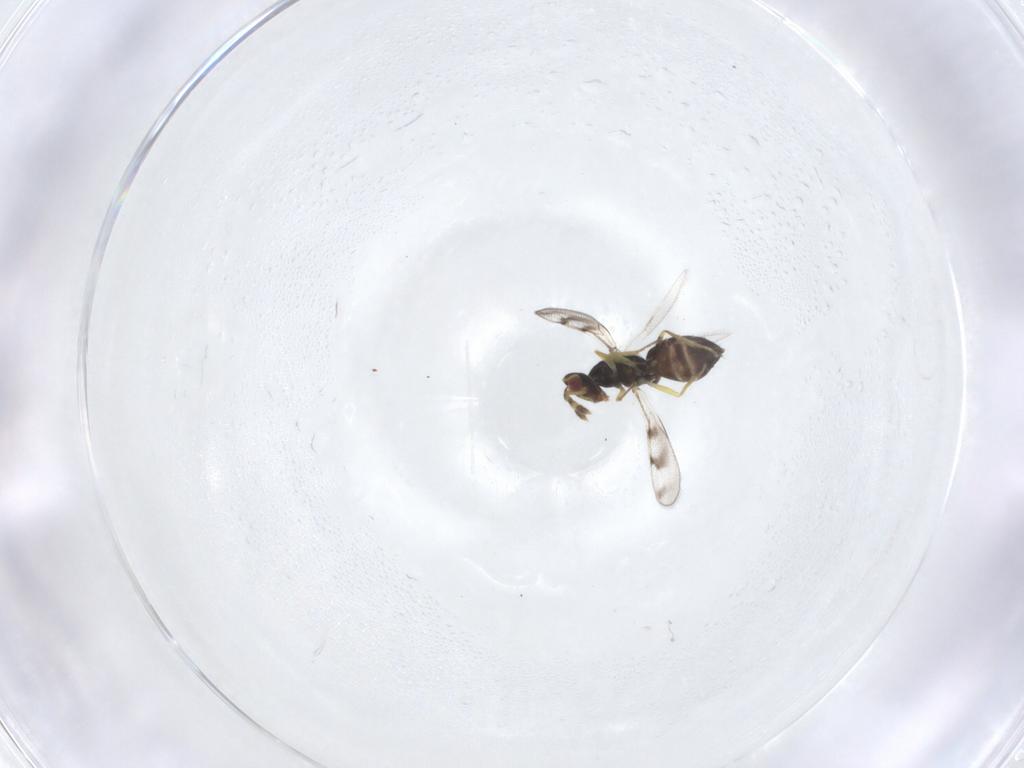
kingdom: Animalia
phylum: Arthropoda
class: Insecta
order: Hymenoptera
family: Eulophidae
